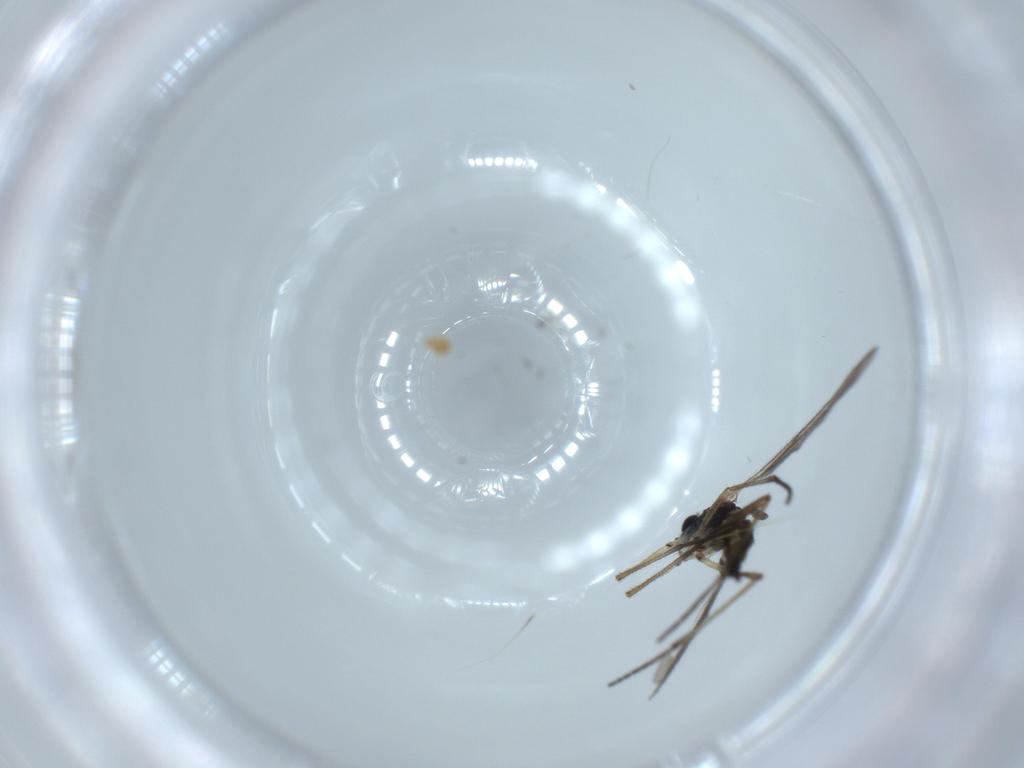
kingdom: Animalia
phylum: Arthropoda
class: Insecta
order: Diptera
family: Sciaridae
